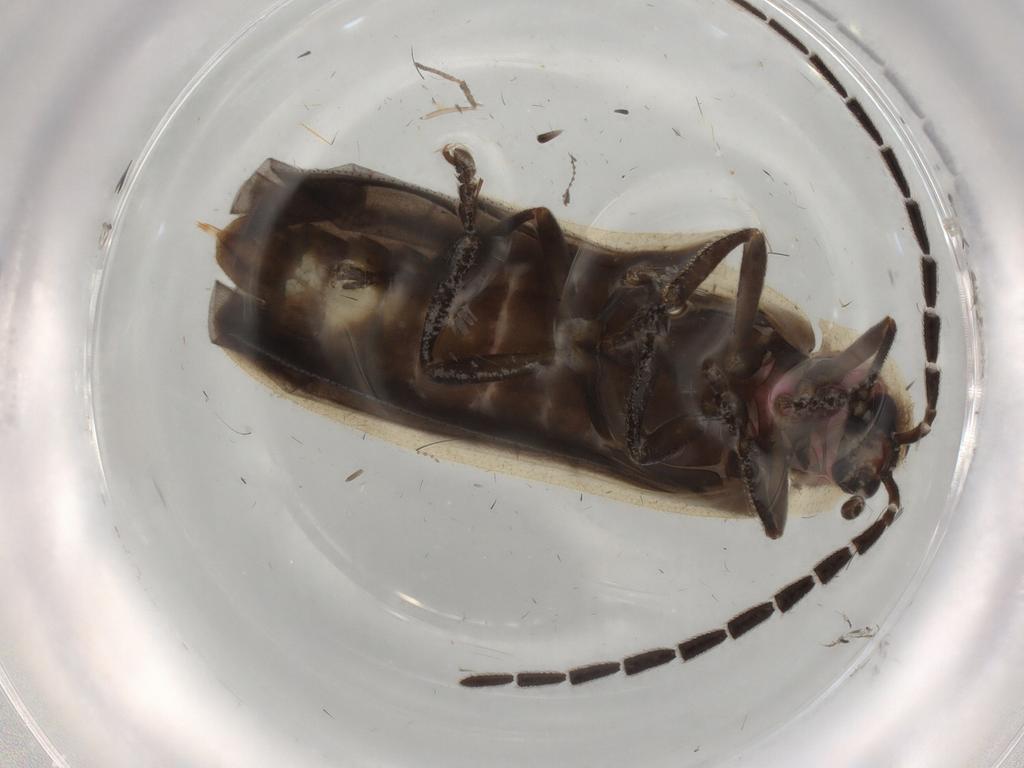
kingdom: Animalia
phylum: Arthropoda
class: Insecta
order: Coleoptera
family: Lampyridae
